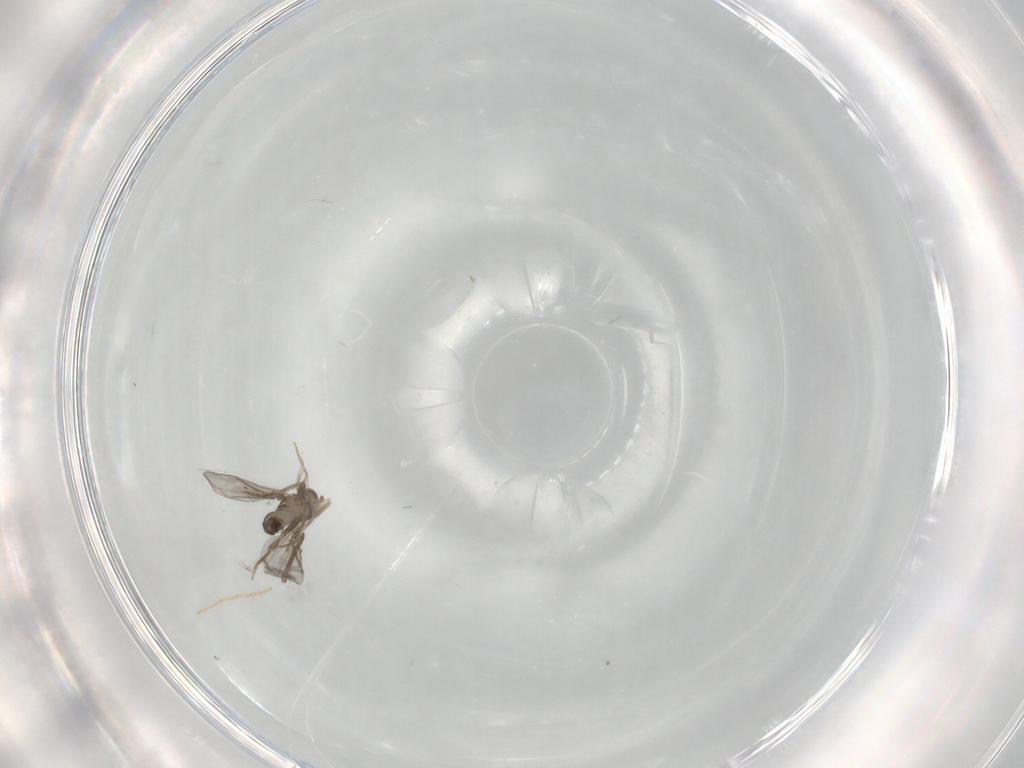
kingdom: Animalia
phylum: Arthropoda
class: Insecta
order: Diptera
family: Chironomidae
